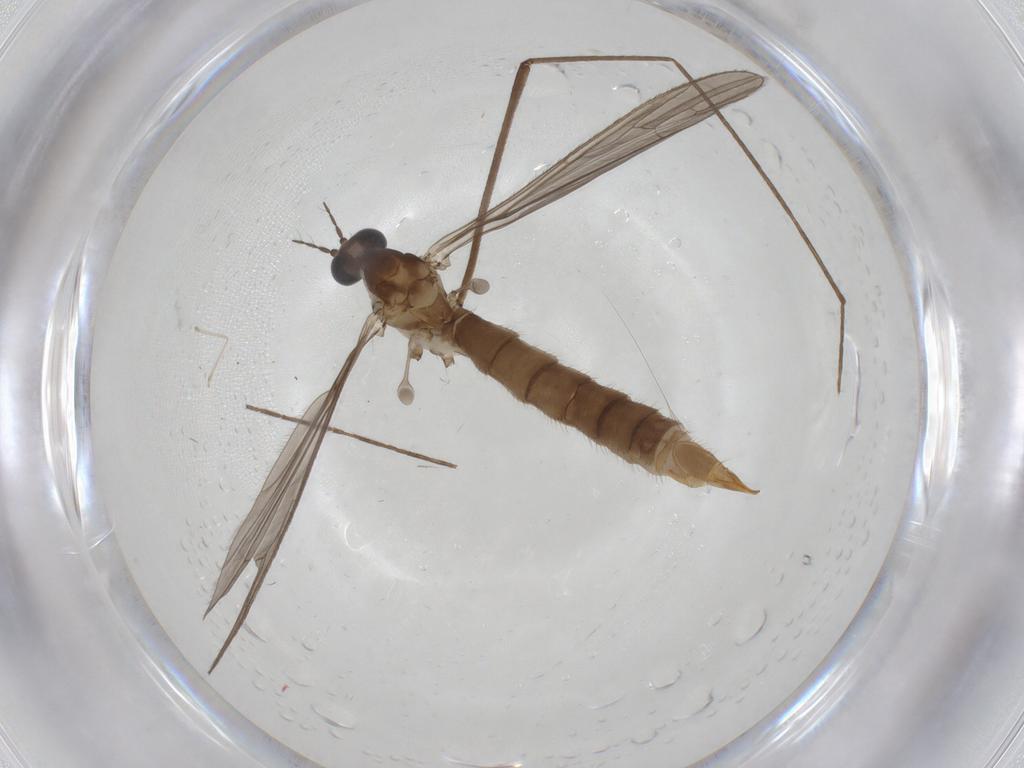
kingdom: Animalia
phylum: Arthropoda
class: Insecta
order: Diptera
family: Limoniidae
